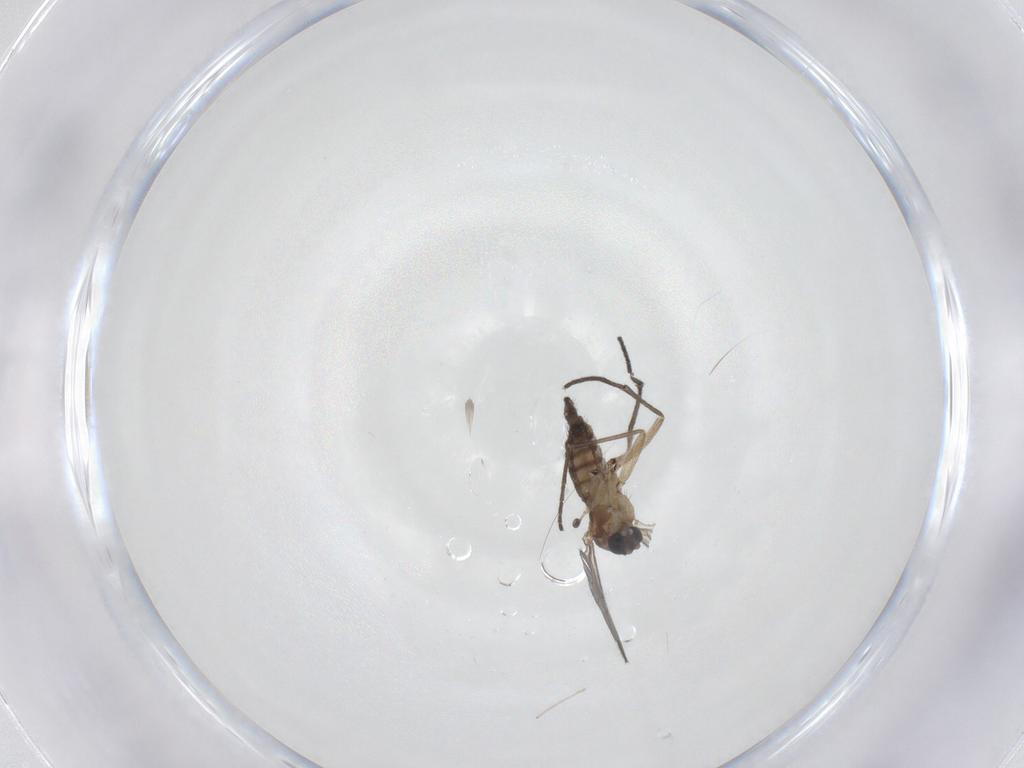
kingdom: Animalia
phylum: Arthropoda
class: Insecta
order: Diptera
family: Sciaridae
